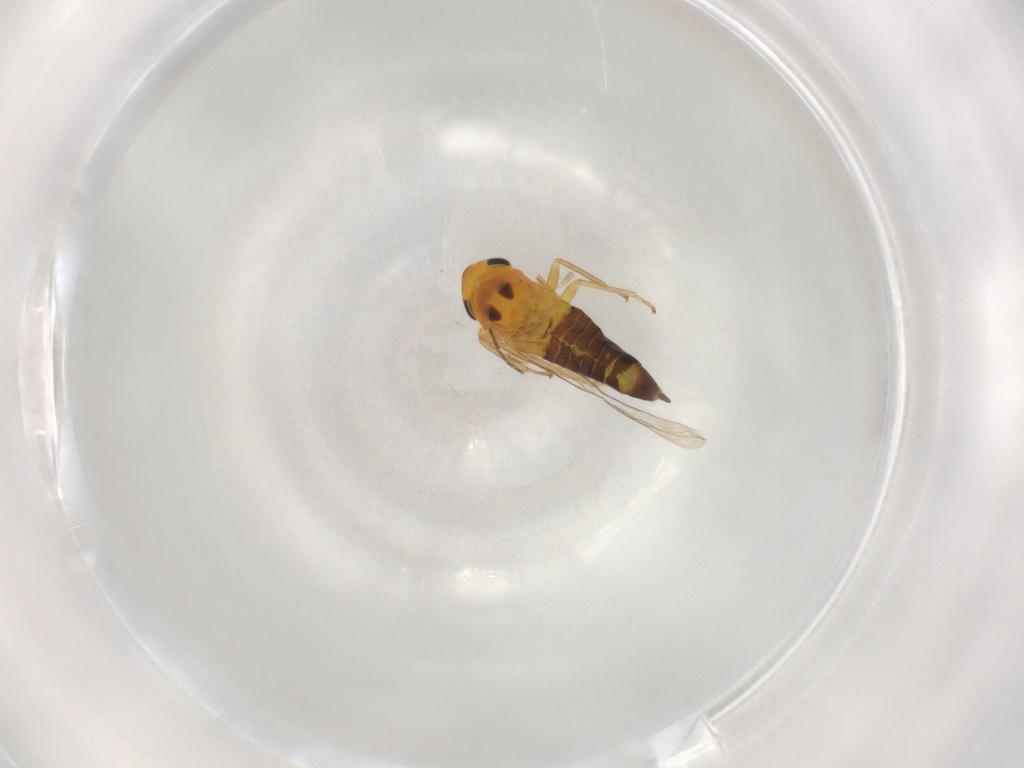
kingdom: Animalia
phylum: Arthropoda
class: Insecta
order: Hemiptera
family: Cicadellidae
